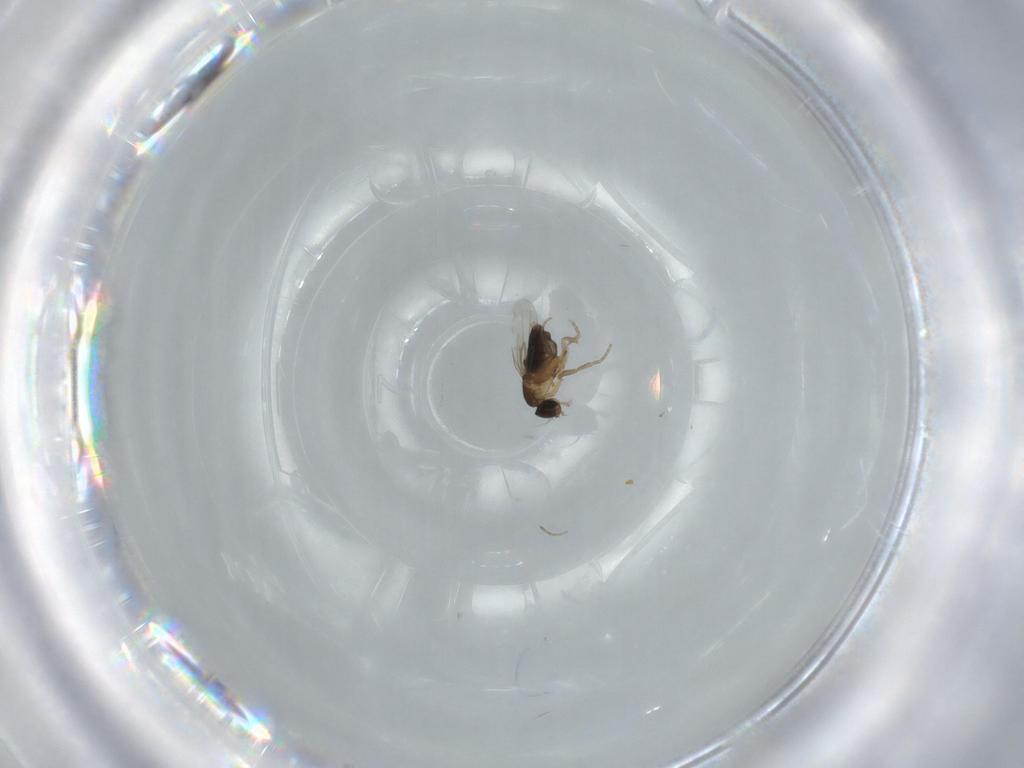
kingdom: Animalia
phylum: Arthropoda
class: Insecta
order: Diptera
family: Phoridae
